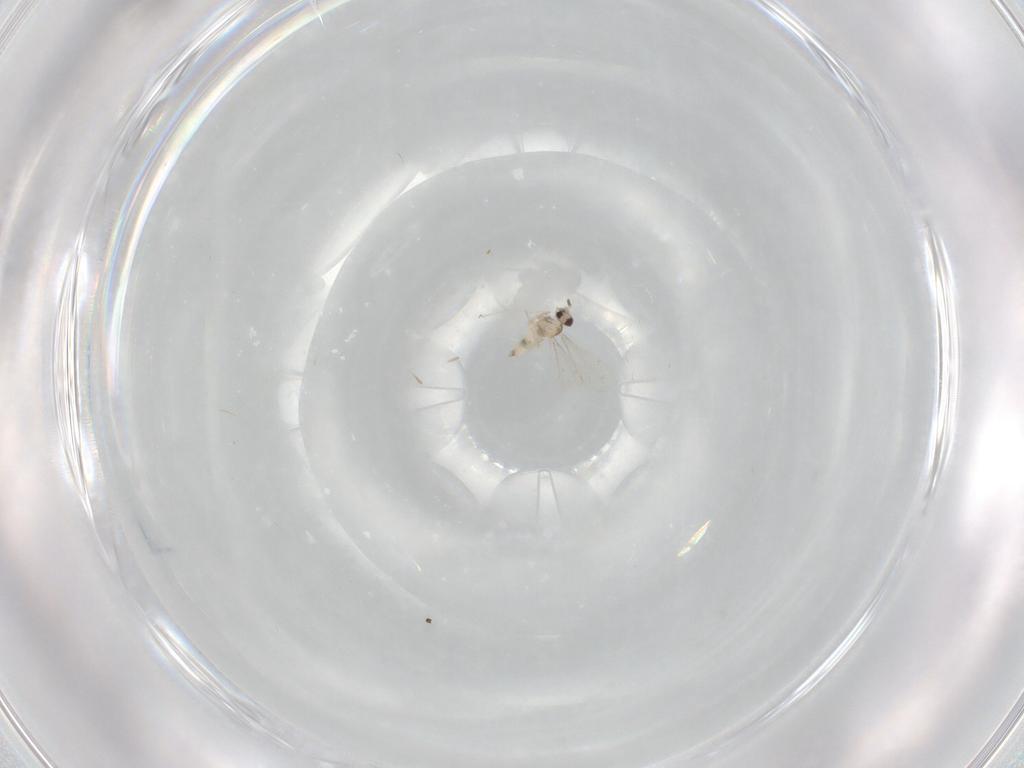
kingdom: Animalia
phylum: Arthropoda
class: Insecta
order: Diptera
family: Cecidomyiidae
